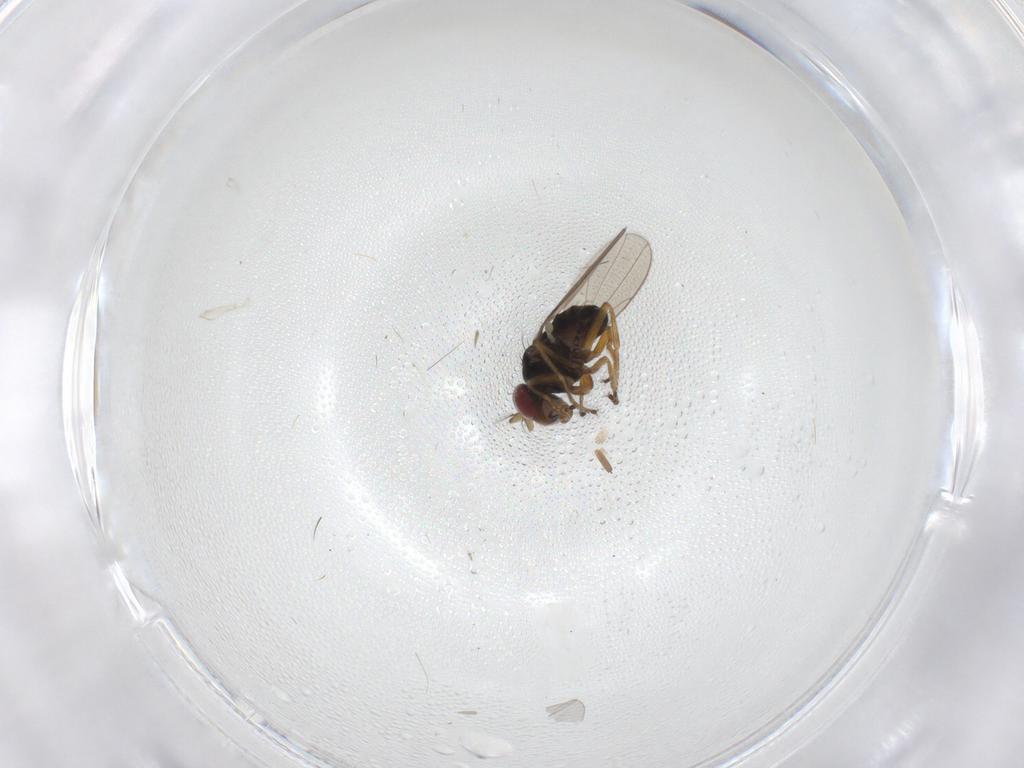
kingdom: Animalia
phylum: Arthropoda
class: Insecta
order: Diptera
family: Ephydridae
